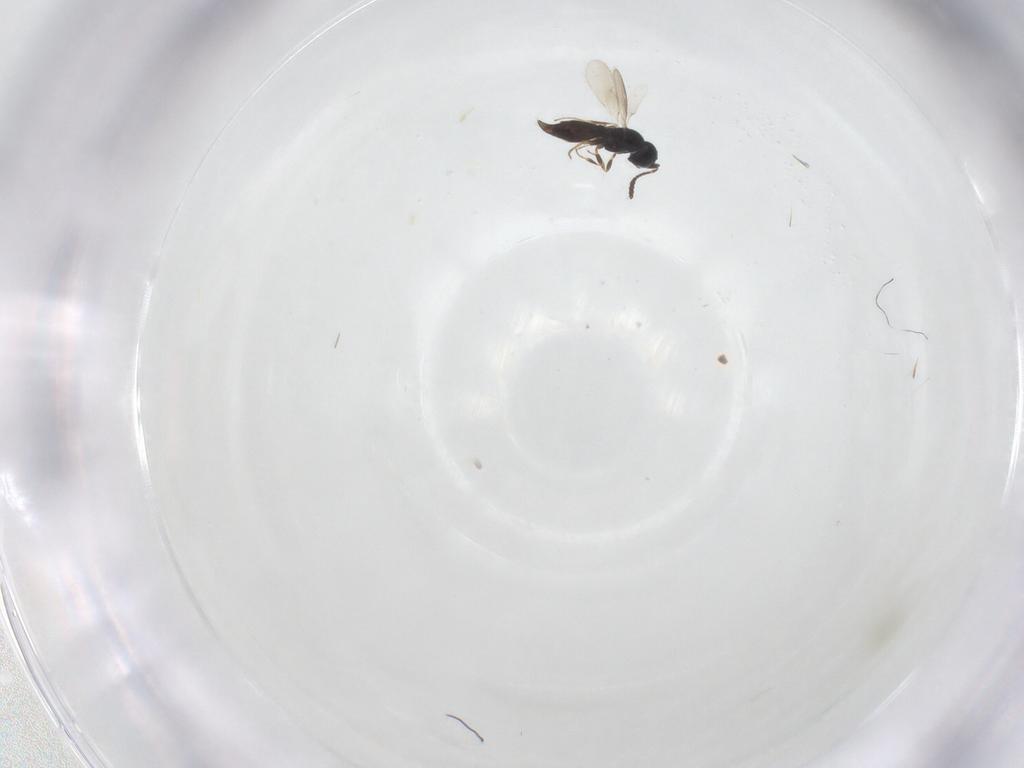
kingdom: Animalia
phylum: Arthropoda
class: Insecta
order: Hymenoptera
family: Scelionidae
